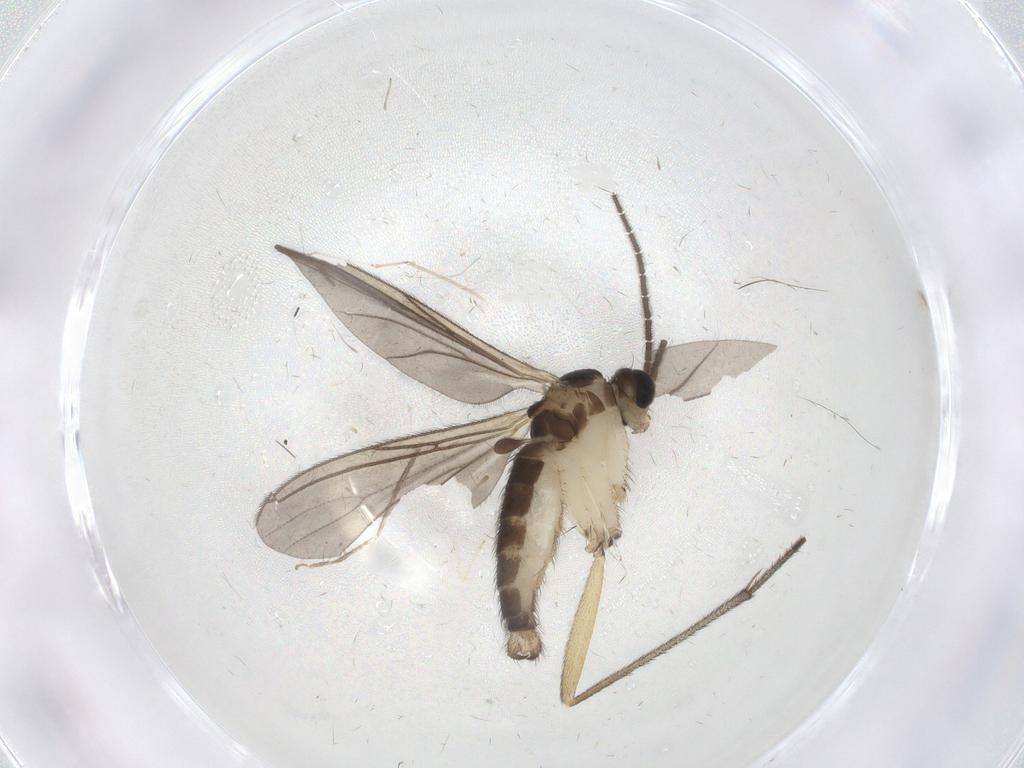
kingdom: Animalia
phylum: Arthropoda
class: Insecta
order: Diptera
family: Sciaridae
